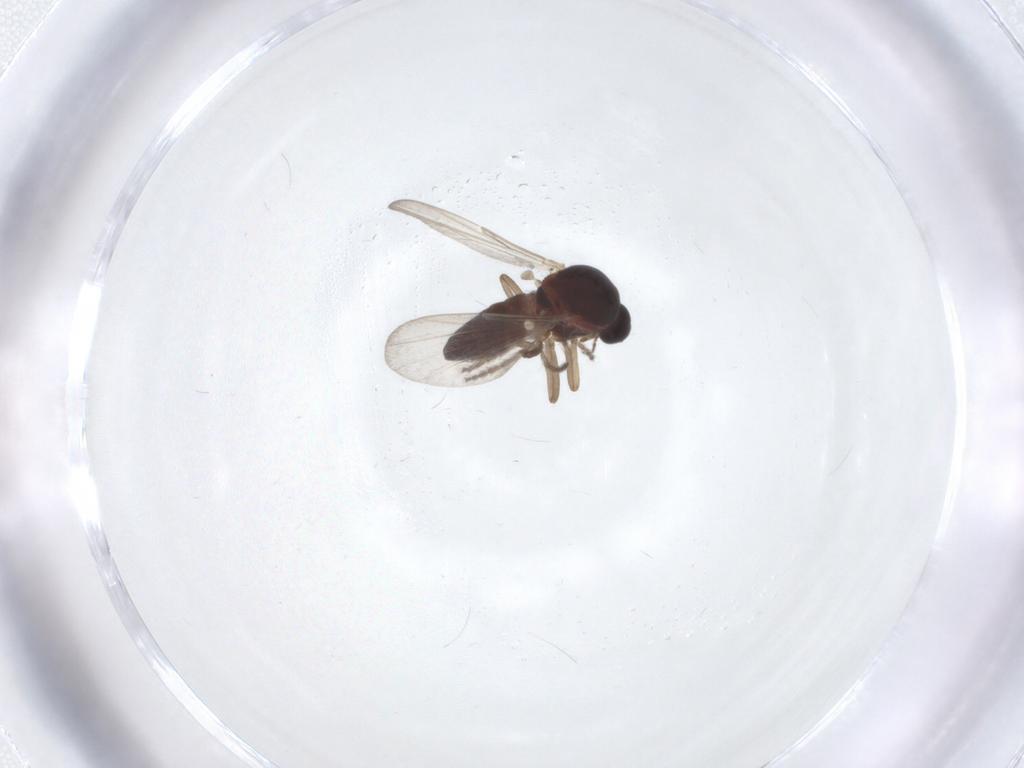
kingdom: Animalia
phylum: Arthropoda
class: Insecta
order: Diptera
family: Ceratopogonidae
